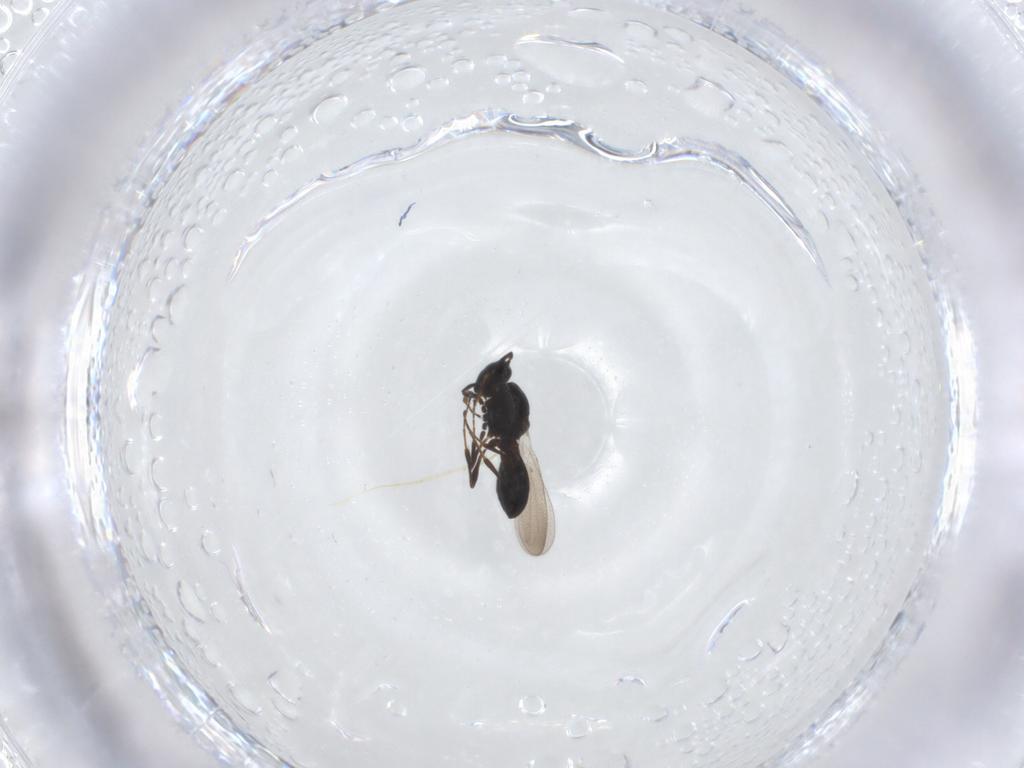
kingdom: Animalia
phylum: Arthropoda
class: Insecta
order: Hymenoptera
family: Platygastridae
